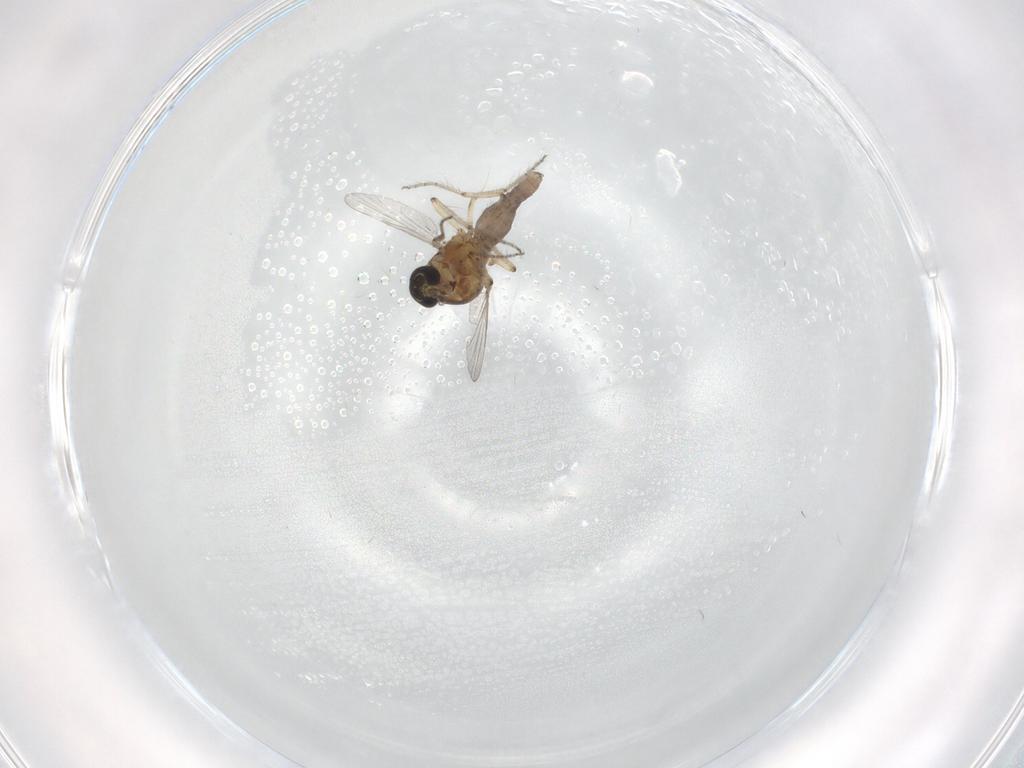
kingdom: Animalia
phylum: Arthropoda
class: Insecta
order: Diptera
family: Ceratopogonidae
